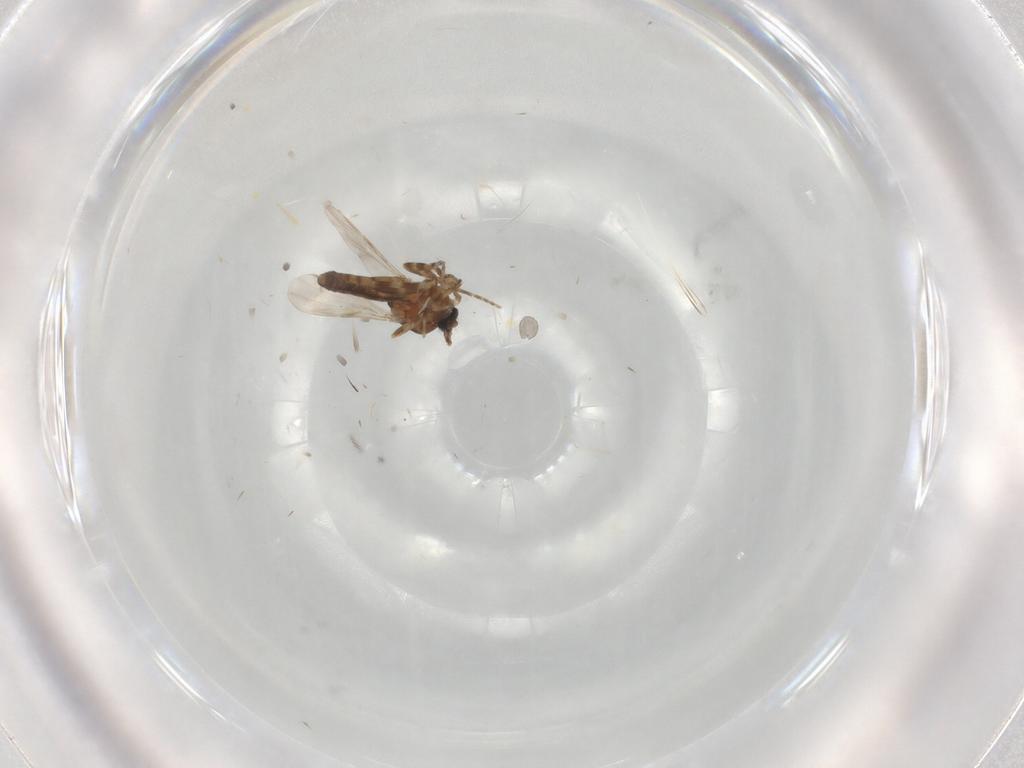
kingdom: Animalia
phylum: Arthropoda
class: Insecta
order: Diptera
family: Ceratopogonidae
